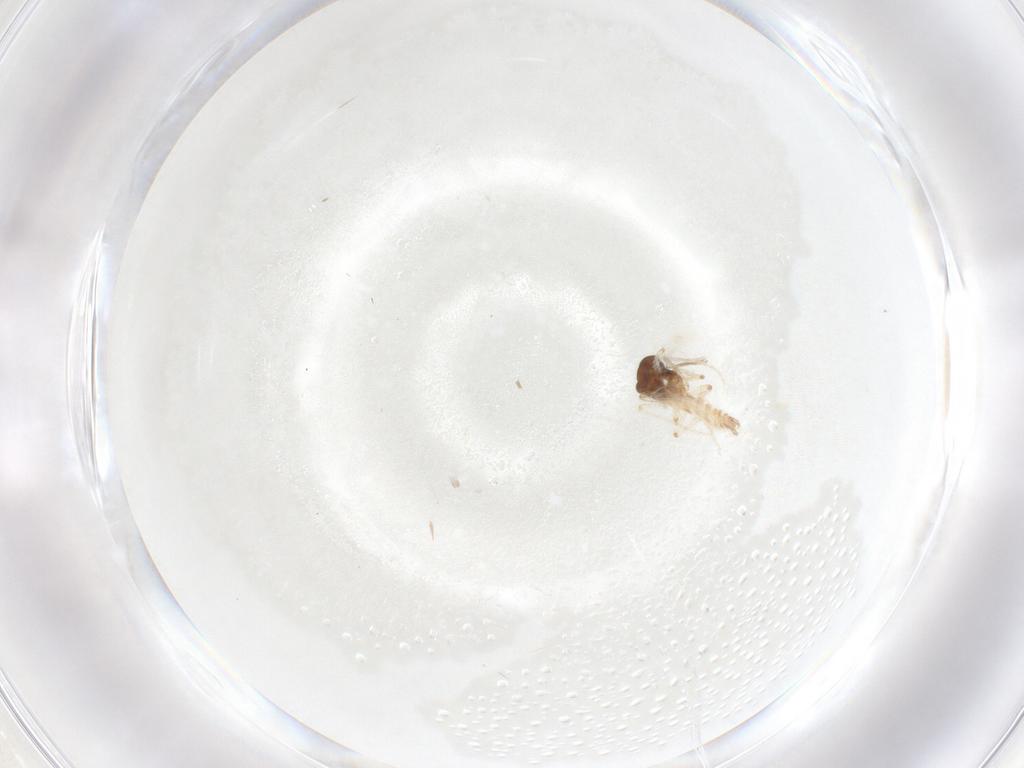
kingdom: Animalia
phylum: Arthropoda
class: Insecta
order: Diptera
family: Ceratopogonidae
